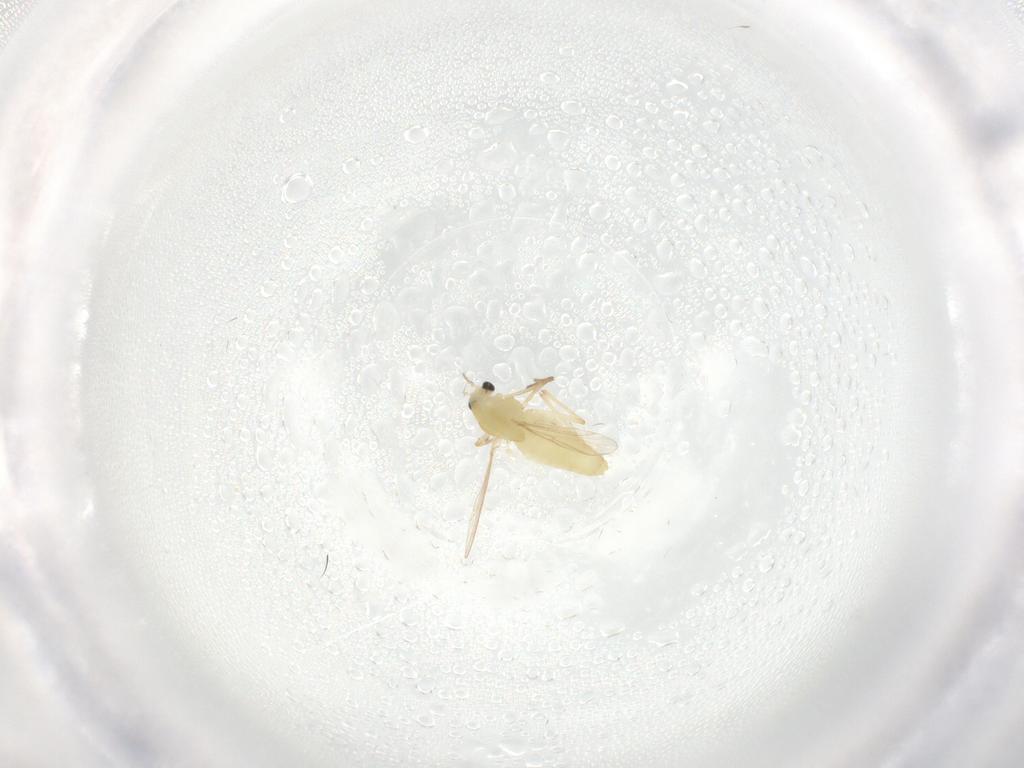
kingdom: Animalia
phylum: Arthropoda
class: Insecta
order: Diptera
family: Chironomidae
